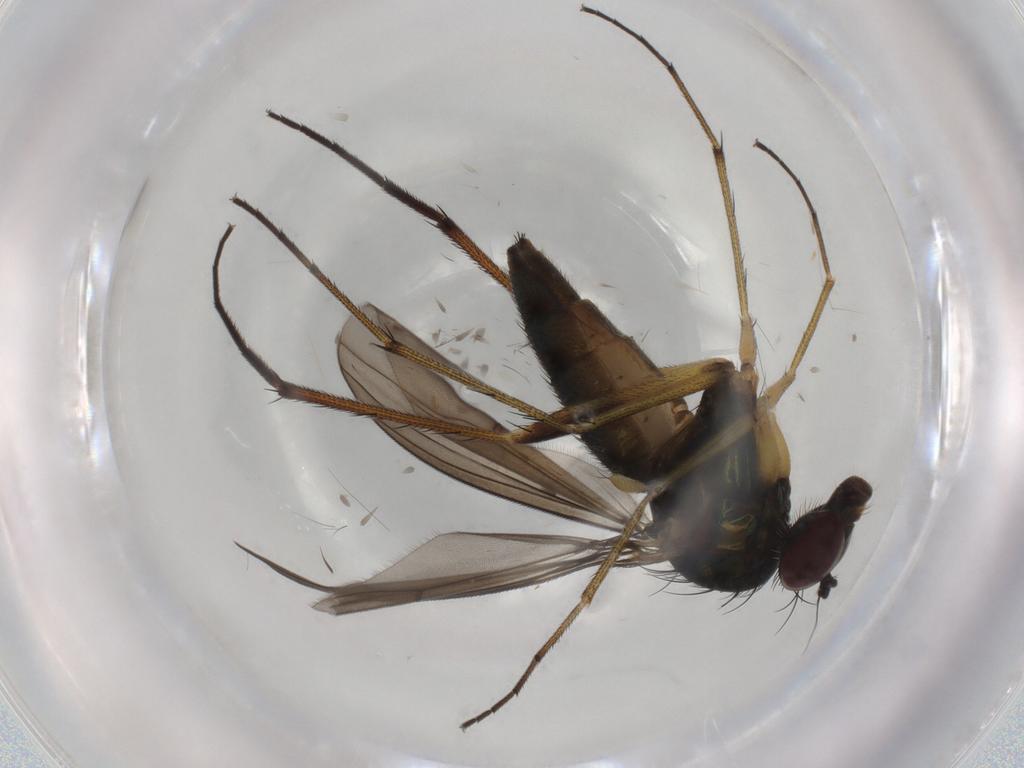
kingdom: Animalia
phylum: Arthropoda
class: Insecta
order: Diptera
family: Dolichopodidae
